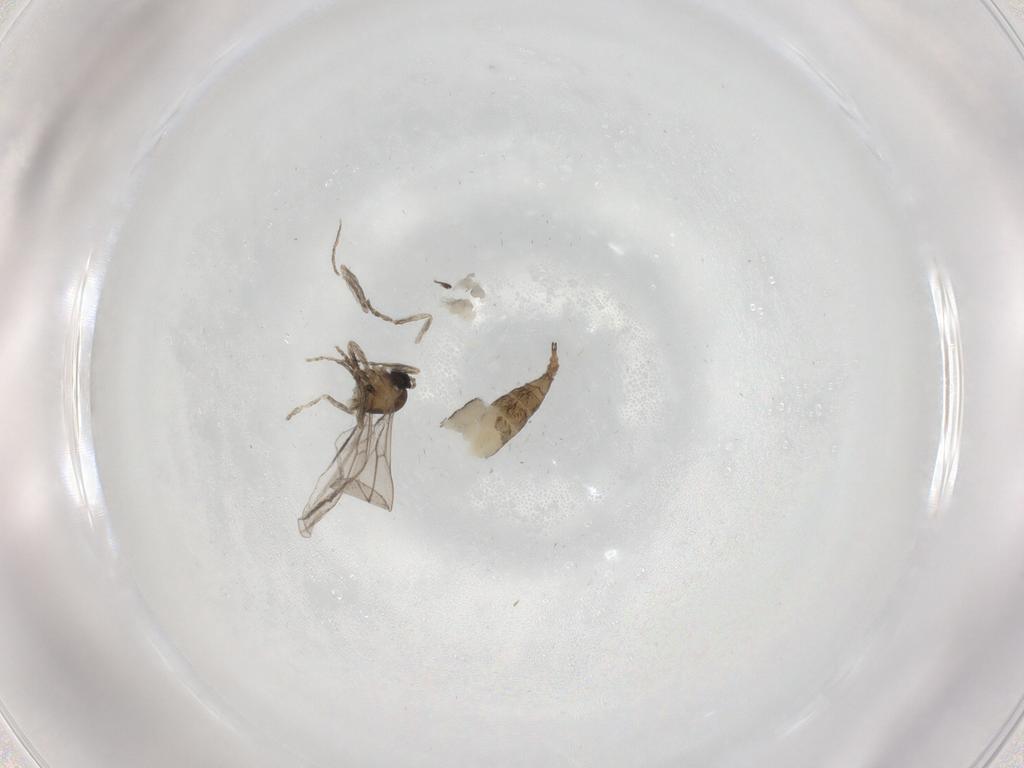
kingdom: Animalia
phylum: Arthropoda
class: Insecta
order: Diptera
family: Cecidomyiidae
